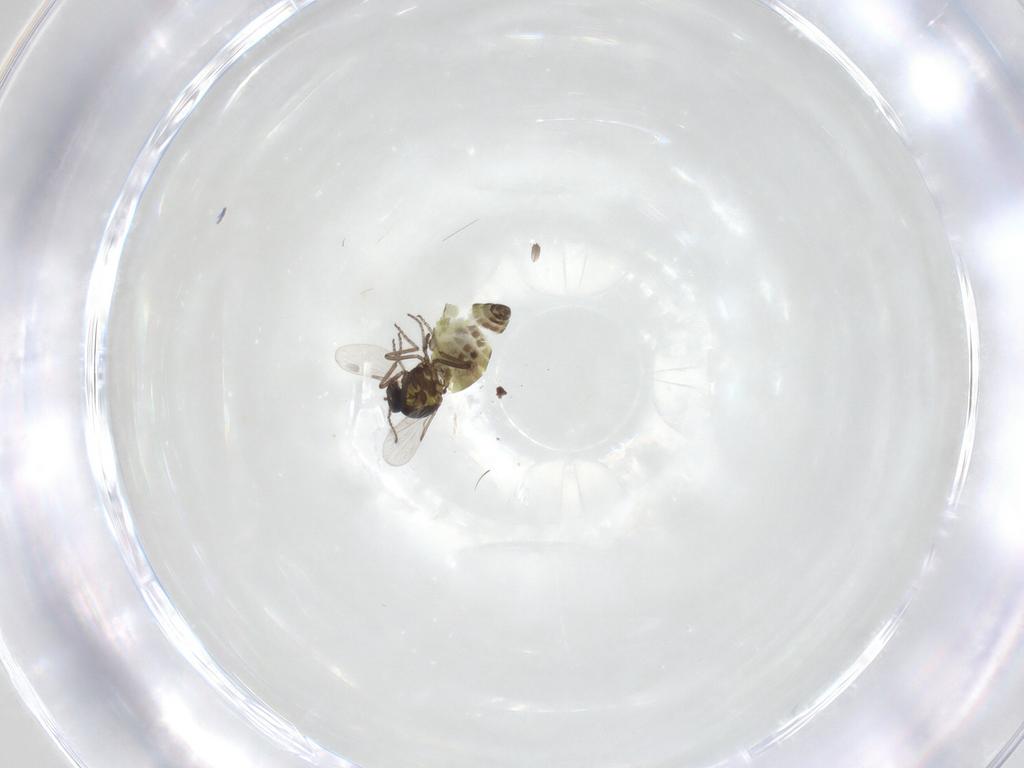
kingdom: Animalia
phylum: Arthropoda
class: Insecta
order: Diptera
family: Ceratopogonidae
